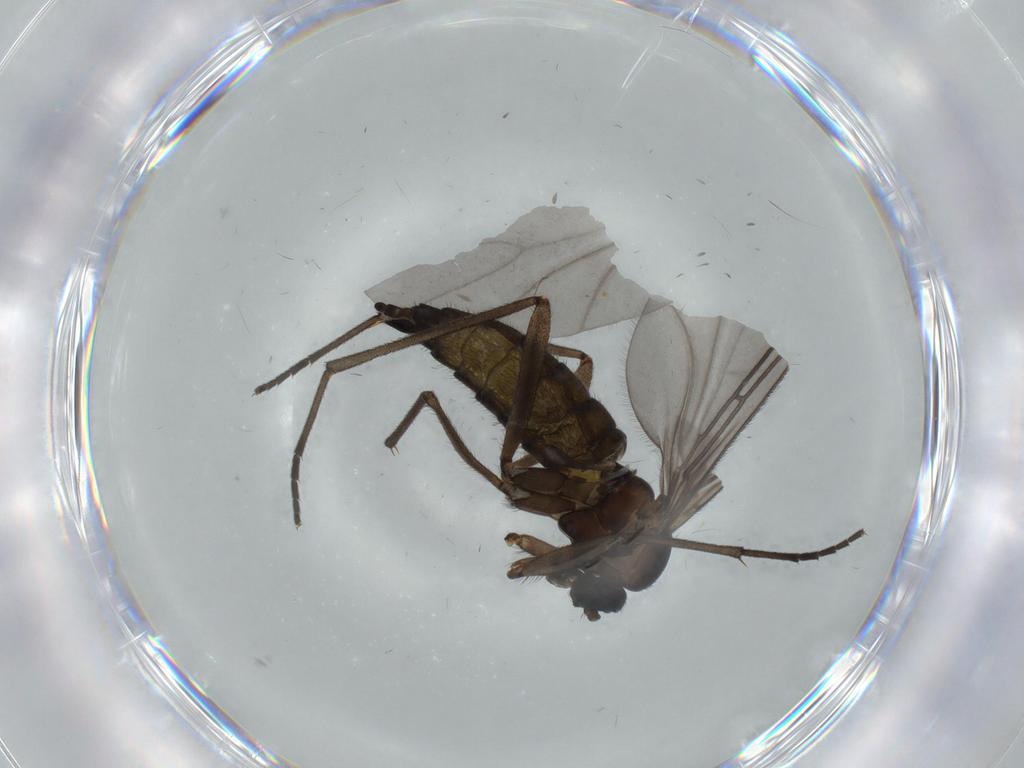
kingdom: Animalia
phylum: Arthropoda
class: Insecta
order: Diptera
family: Sciaridae
